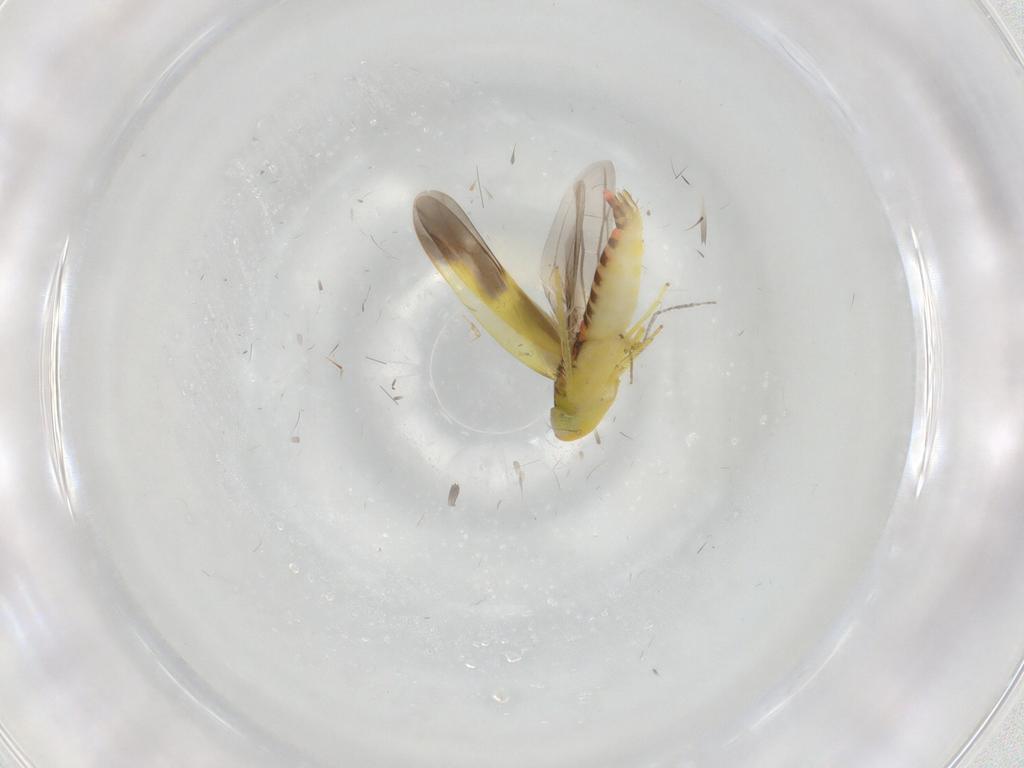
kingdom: Animalia
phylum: Arthropoda
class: Insecta
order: Hemiptera
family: Cicadellidae
